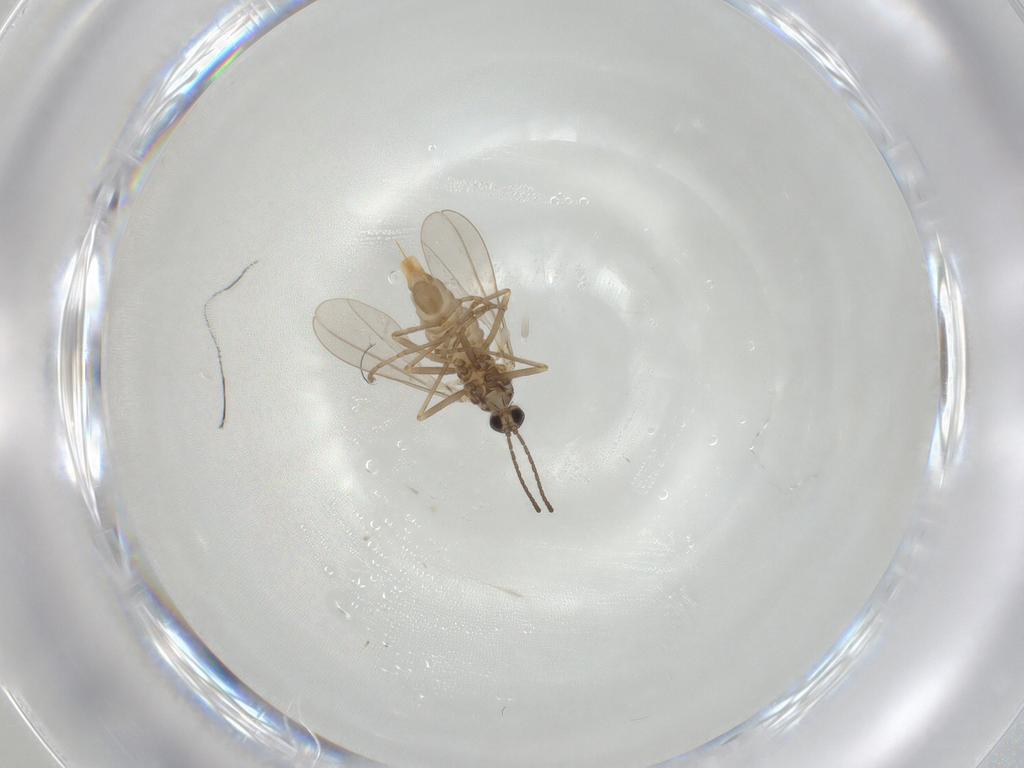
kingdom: Animalia
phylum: Arthropoda
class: Insecta
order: Diptera
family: Cecidomyiidae
